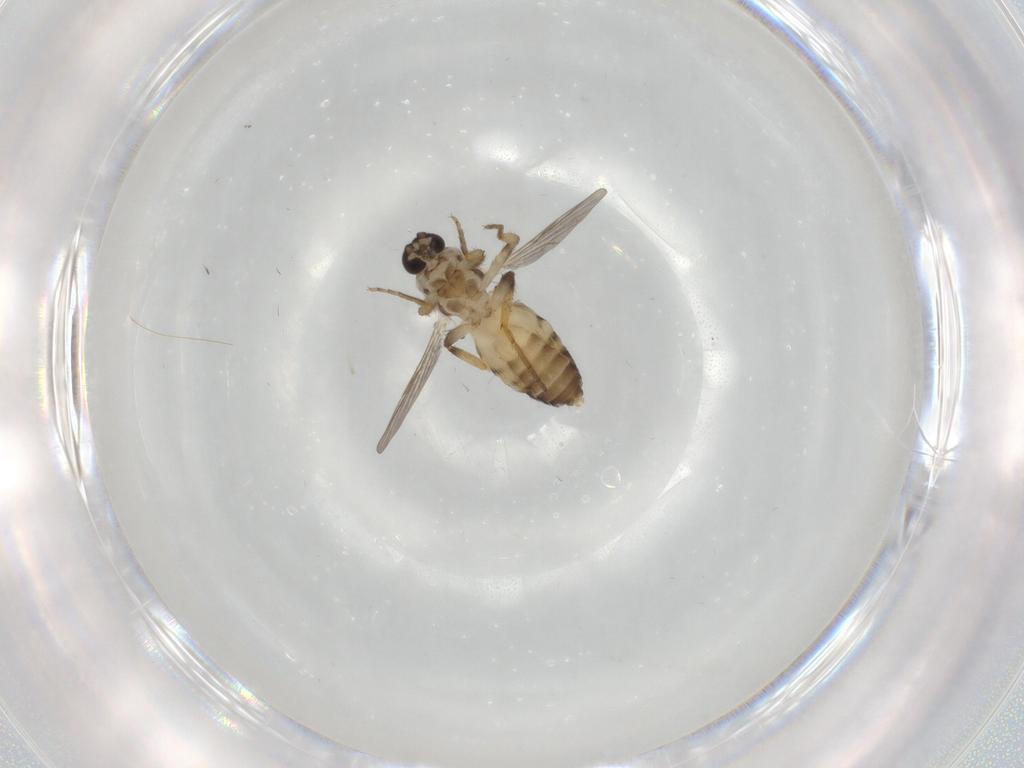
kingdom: Animalia
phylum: Arthropoda
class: Insecta
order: Diptera
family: Ceratopogonidae
